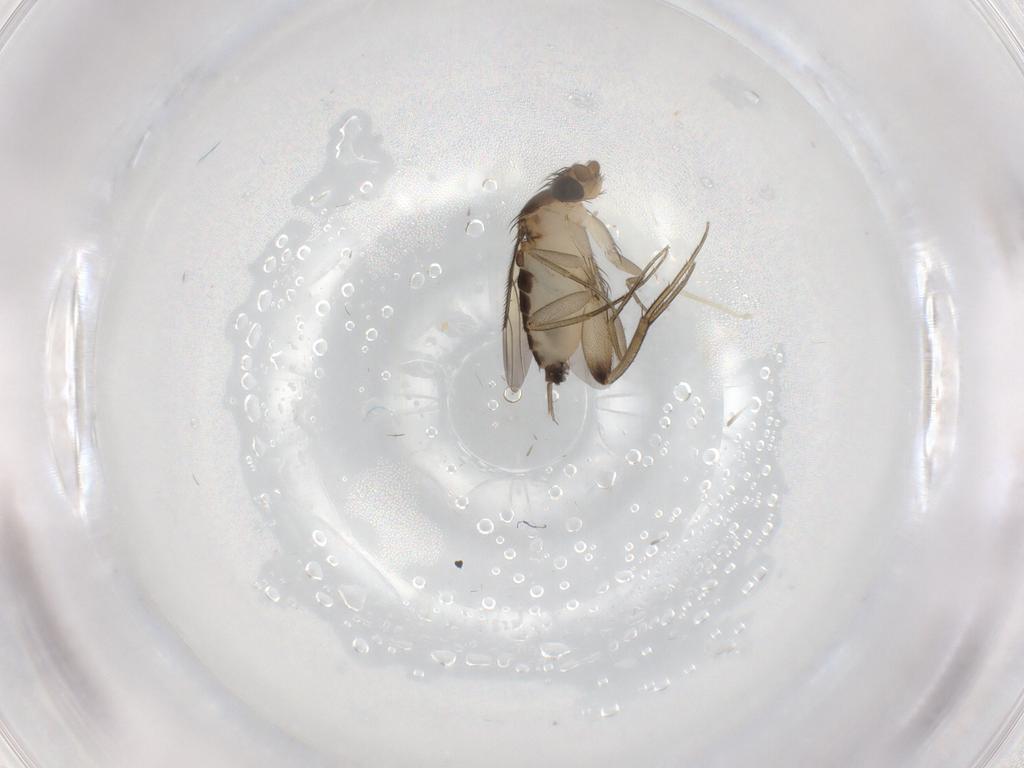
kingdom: Animalia
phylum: Arthropoda
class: Insecta
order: Diptera
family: Phoridae
